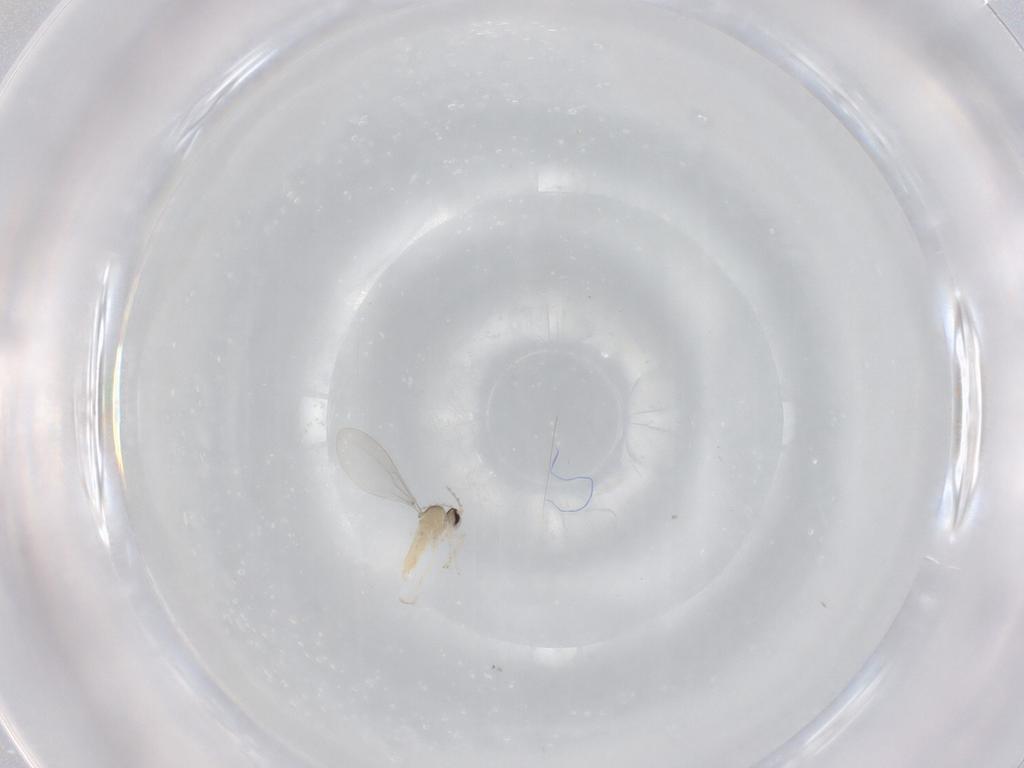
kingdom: Animalia
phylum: Arthropoda
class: Insecta
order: Diptera
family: Cecidomyiidae
